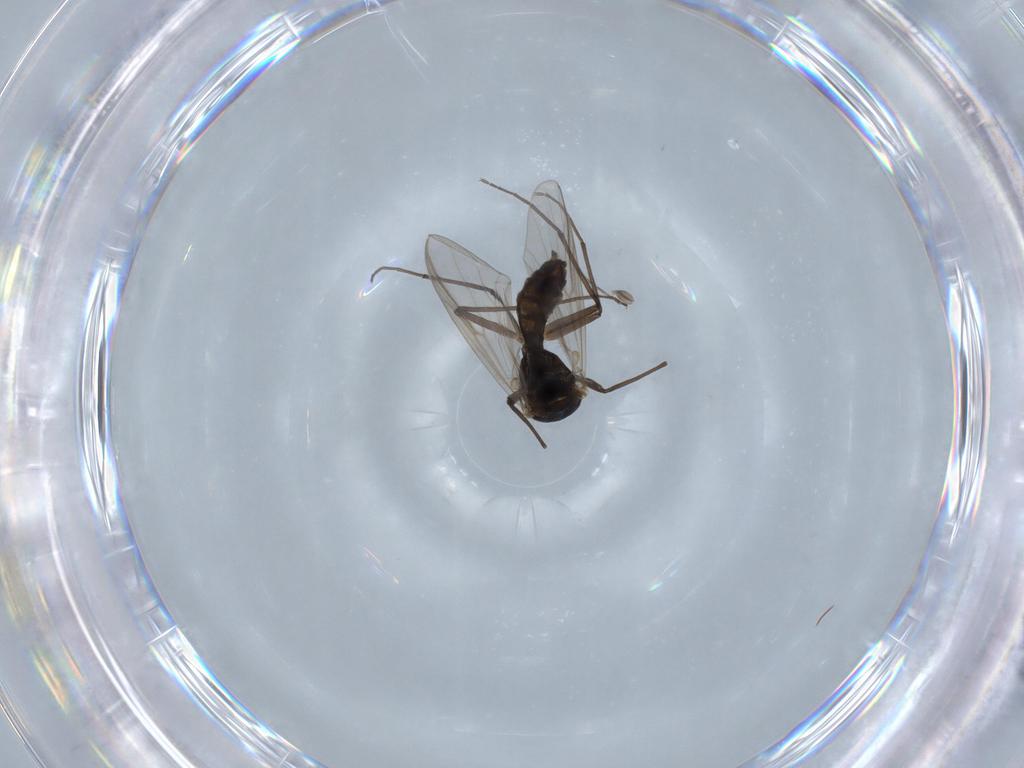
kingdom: Animalia
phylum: Arthropoda
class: Insecta
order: Diptera
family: Chironomidae
